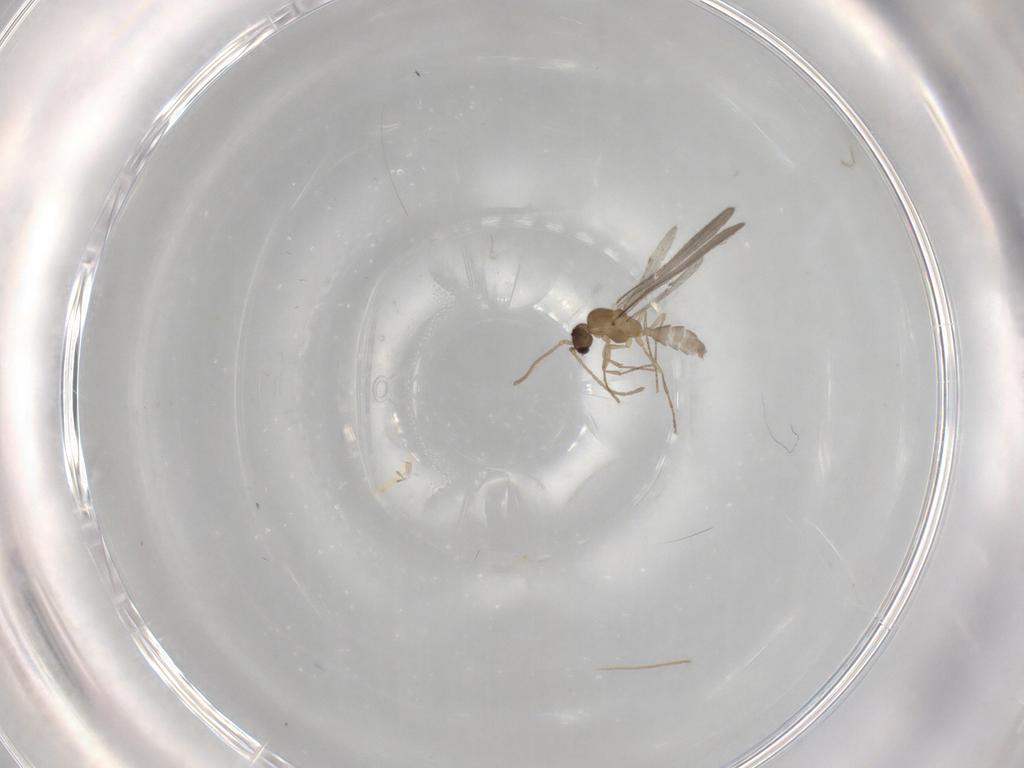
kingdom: Animalia
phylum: Arthropoda
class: Insecta
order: Hymenoptera
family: Formicidae
